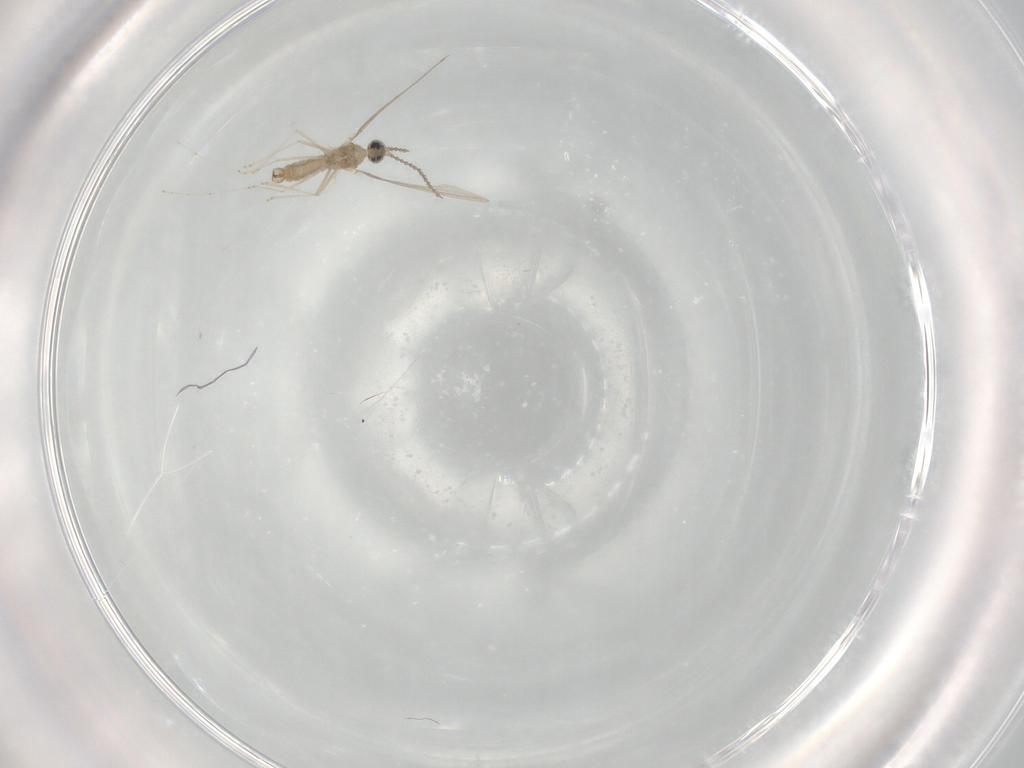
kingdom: Animalia
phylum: Arthropoda
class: Insecta
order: Diptera
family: Cecidomyiidae
